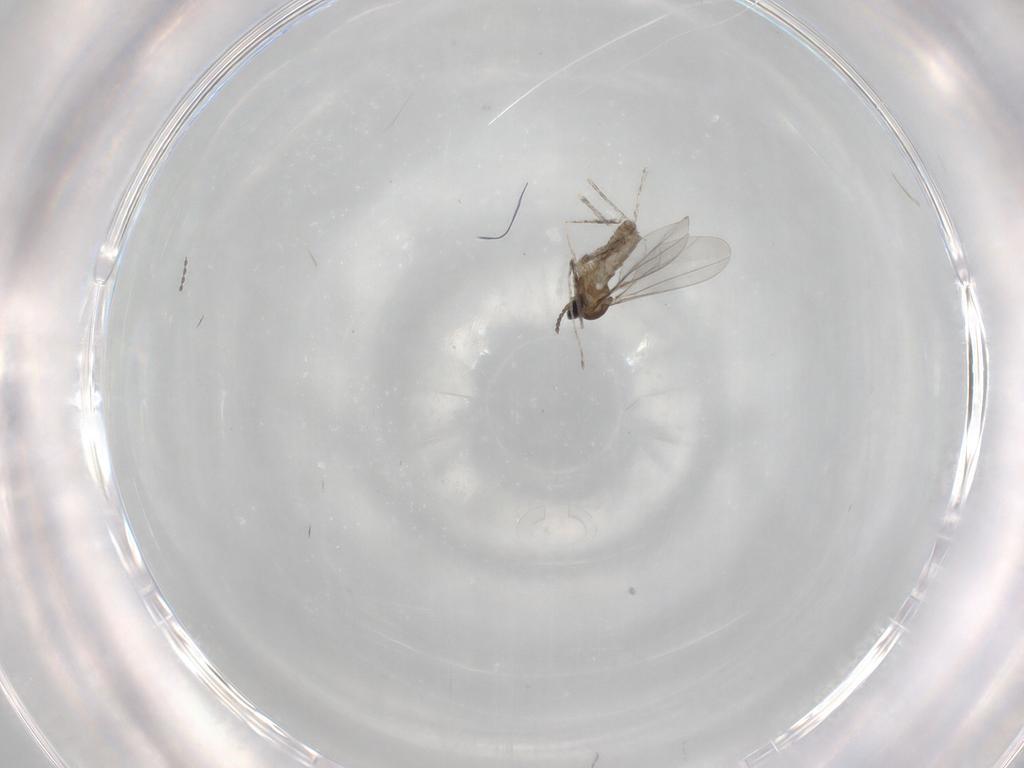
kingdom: Animalia
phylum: Arthropoda
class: Insecta
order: Diptera
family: Cecidomyiidae
